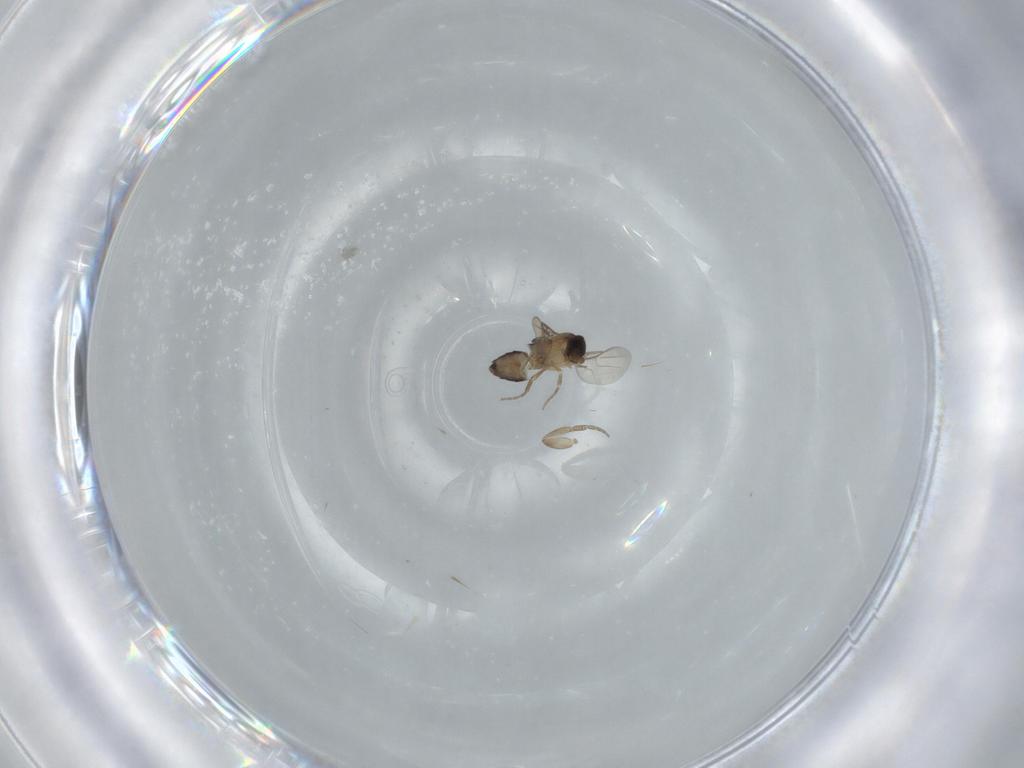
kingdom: Animalia
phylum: Arthropoda
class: Insecta
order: Diptera
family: Phoridae
